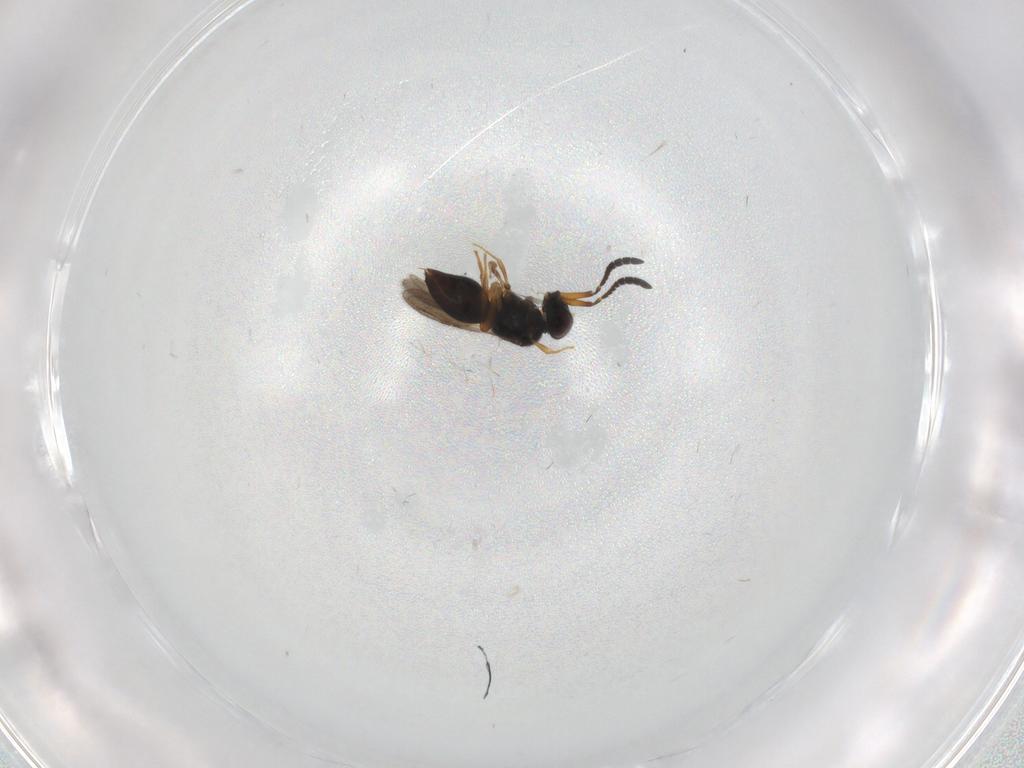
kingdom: Animalia
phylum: Arthropoda
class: Insecta
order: Hymenoptera
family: Ceraphronidae
